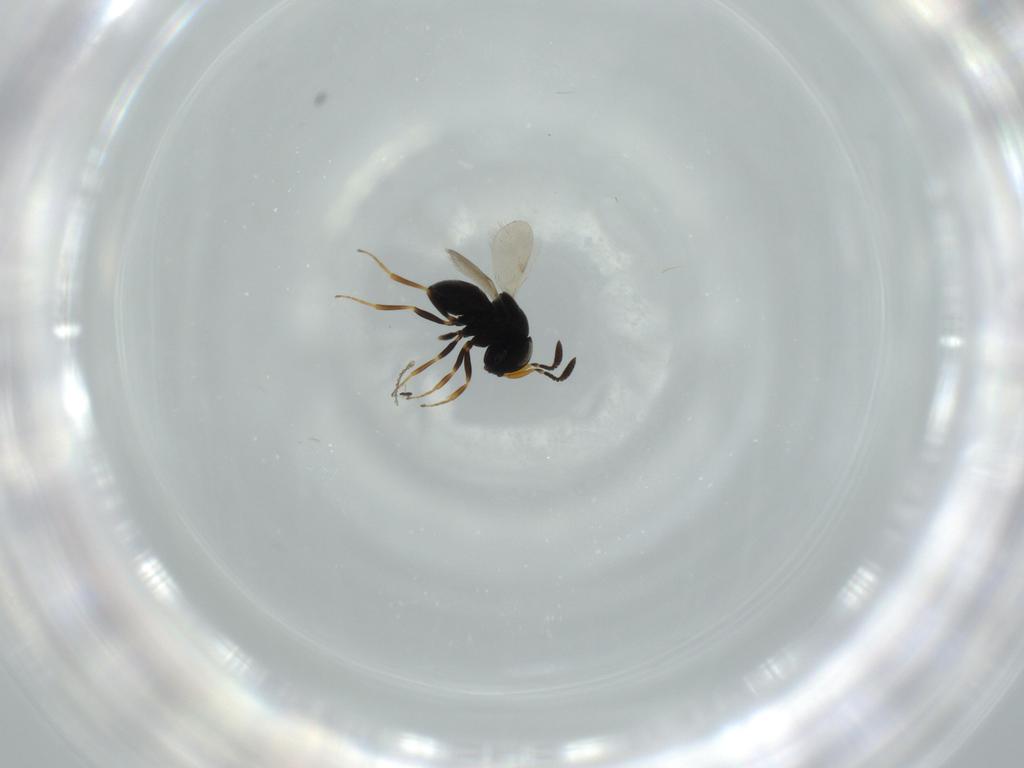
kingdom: Animalia
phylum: Arthropoda
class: Insecta
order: Hymenoptera
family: Scelionidae
